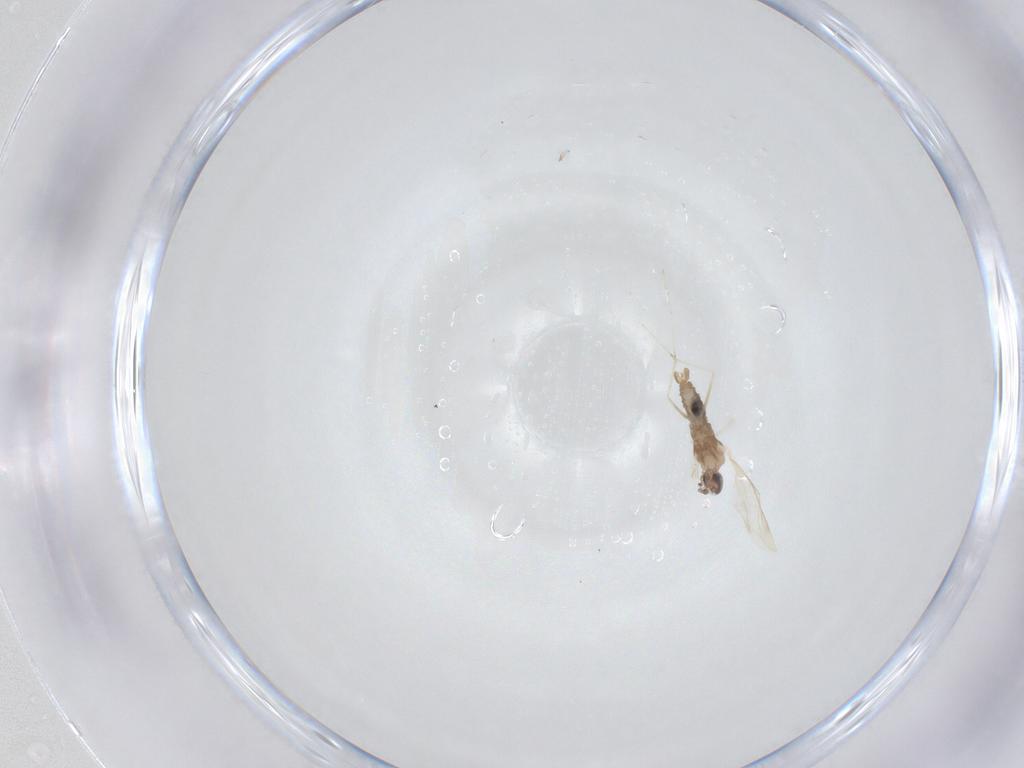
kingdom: Animalia
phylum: Arthropoda
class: Insecta
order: Diptera
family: Cecidomyiidae
